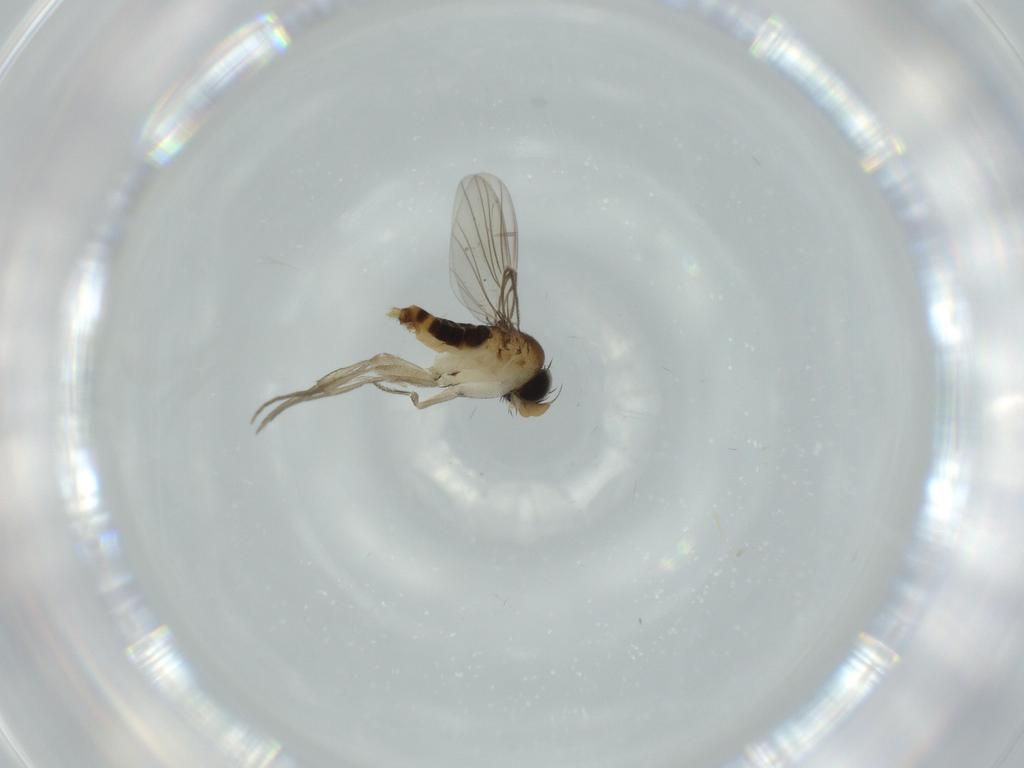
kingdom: Animalia
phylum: Arthropoda
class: Insecta
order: Diptera
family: Phoridae
